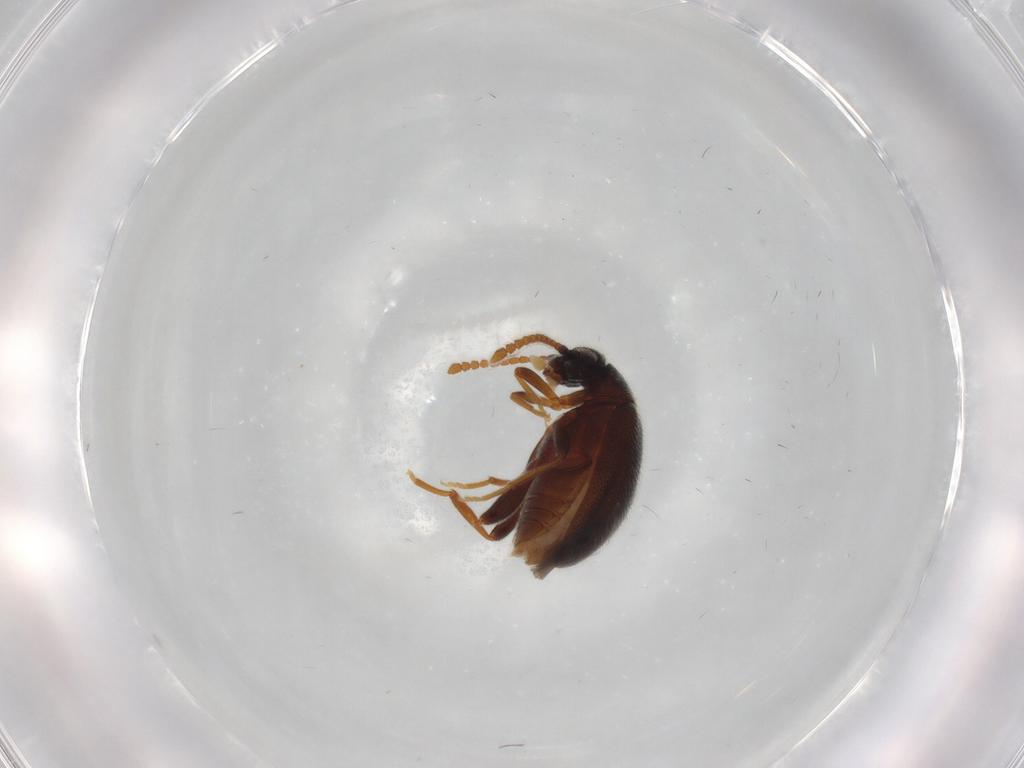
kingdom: Animalia
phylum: Arthropoda
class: Insecta
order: Coleoptera
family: Aderidae
